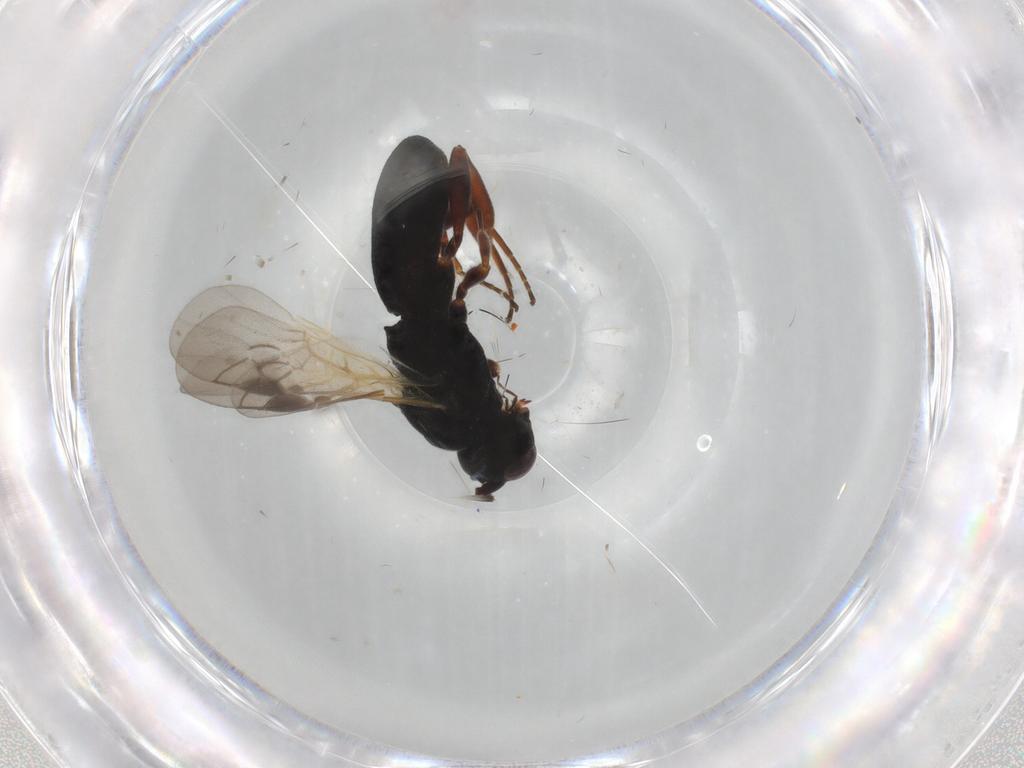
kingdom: Animalia
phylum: Arthropoda
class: Insecta
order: Hymenoptera
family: Braconidae
